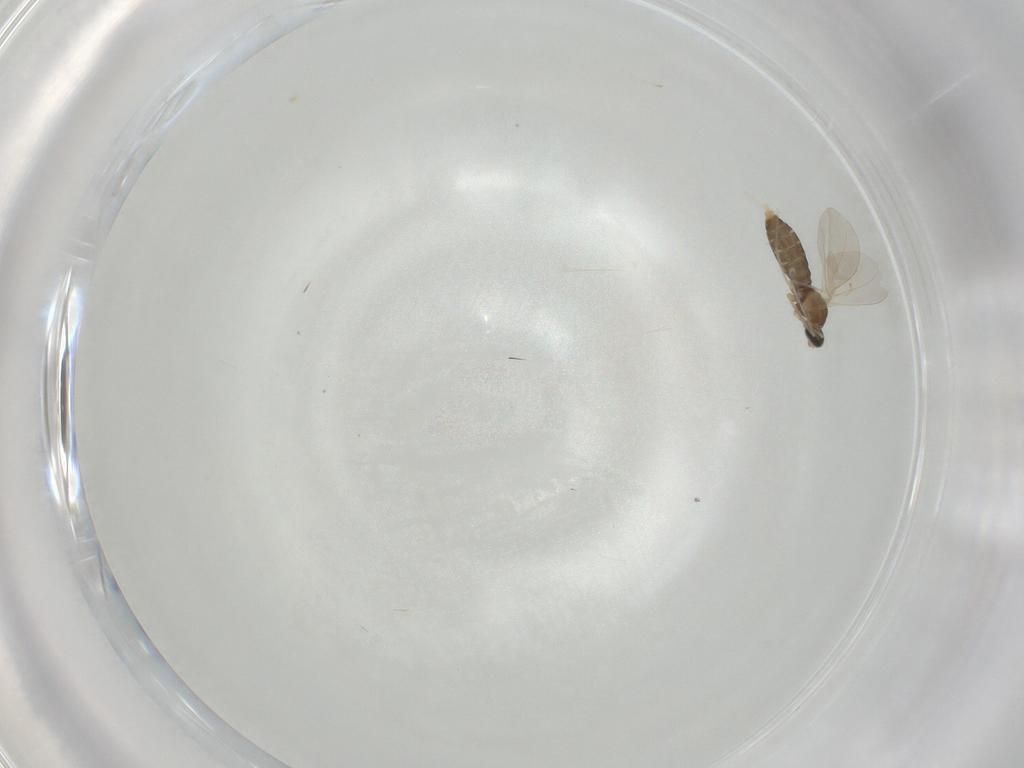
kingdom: Animalia
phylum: Arthropoda
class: Insecta
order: Diptera
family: Cecidomyiidae
